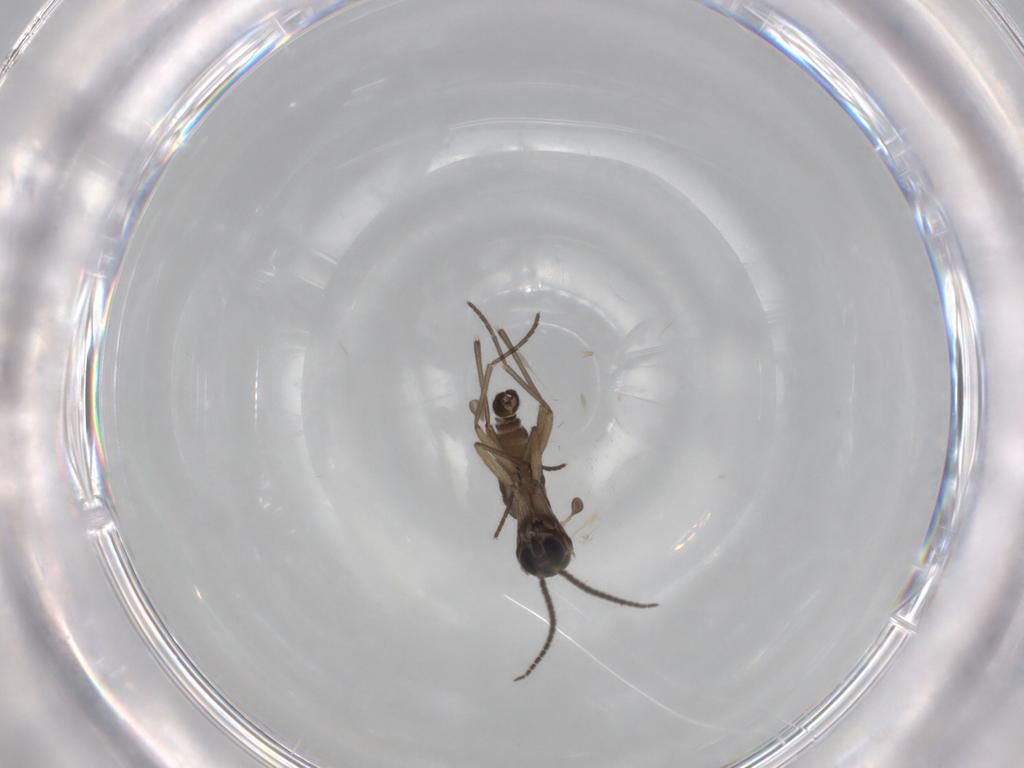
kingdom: Animalia
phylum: Arthropoda
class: Insecta
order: Diptera
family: Sciaridae
